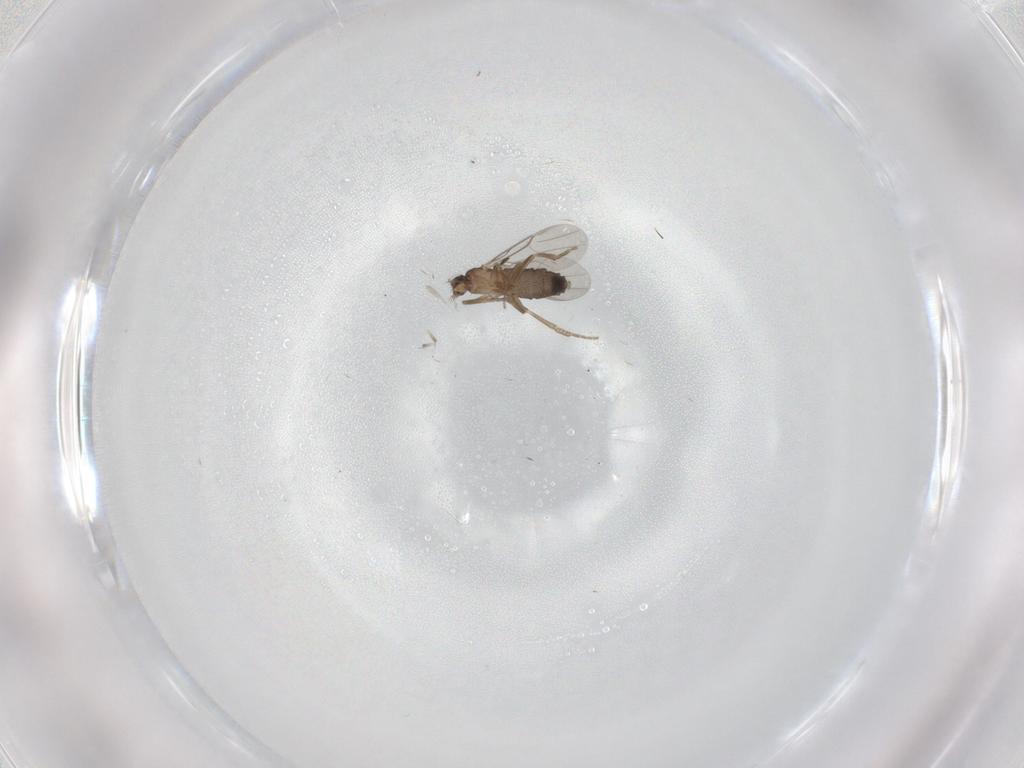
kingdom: Animalia
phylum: Arthropoda
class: Insecta
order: Diptera
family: Phoridae
